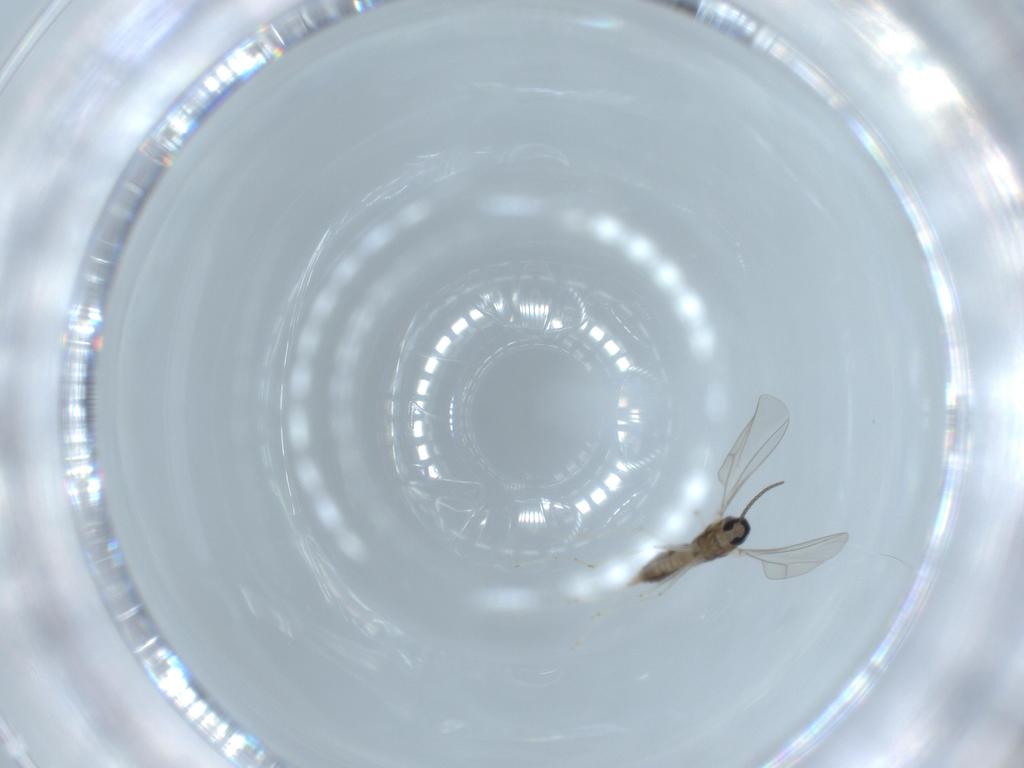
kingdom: Animalia
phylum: Arthropoda
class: Insecta
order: Diptera
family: Cecidomyiidae
